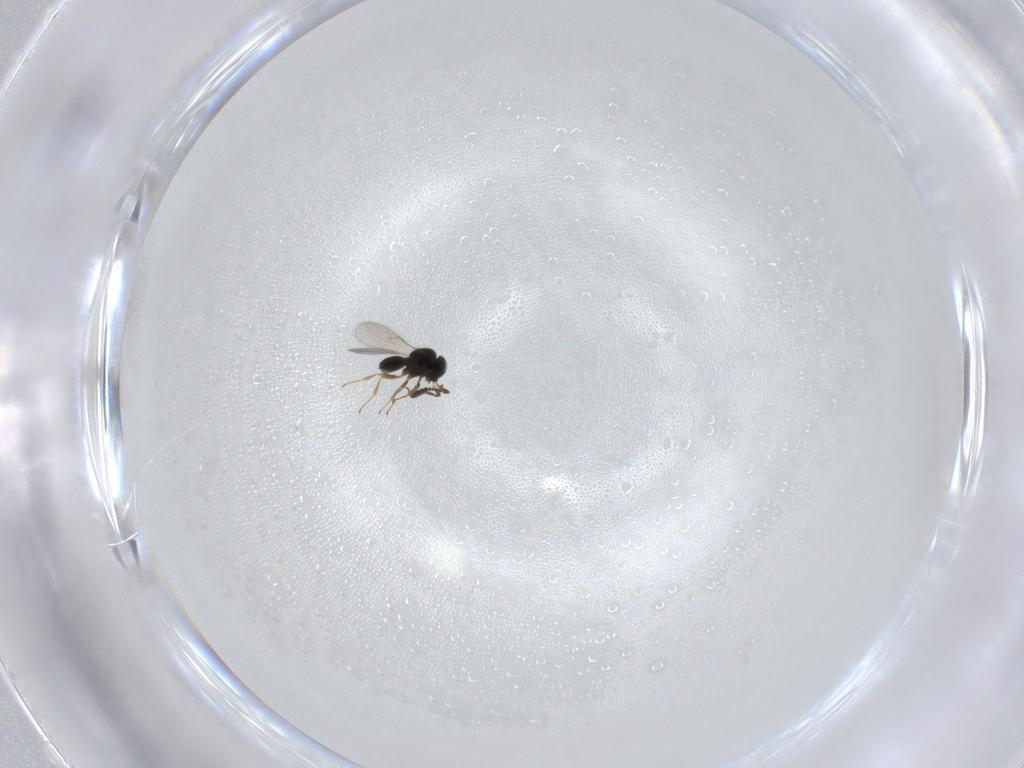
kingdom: Animalia
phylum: Arthropoda
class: Insecta
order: Hymenoptera
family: Scelionidae
